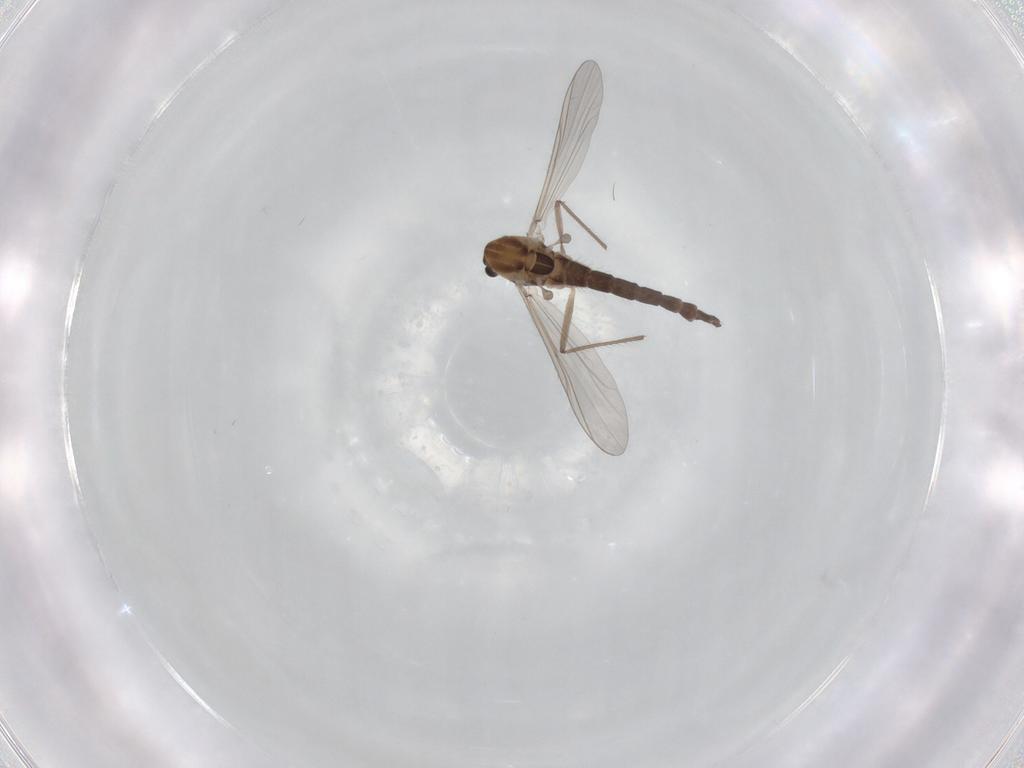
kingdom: Animalia
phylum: Arthropoda
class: Insecta
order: Diptera
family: Chironomidae
